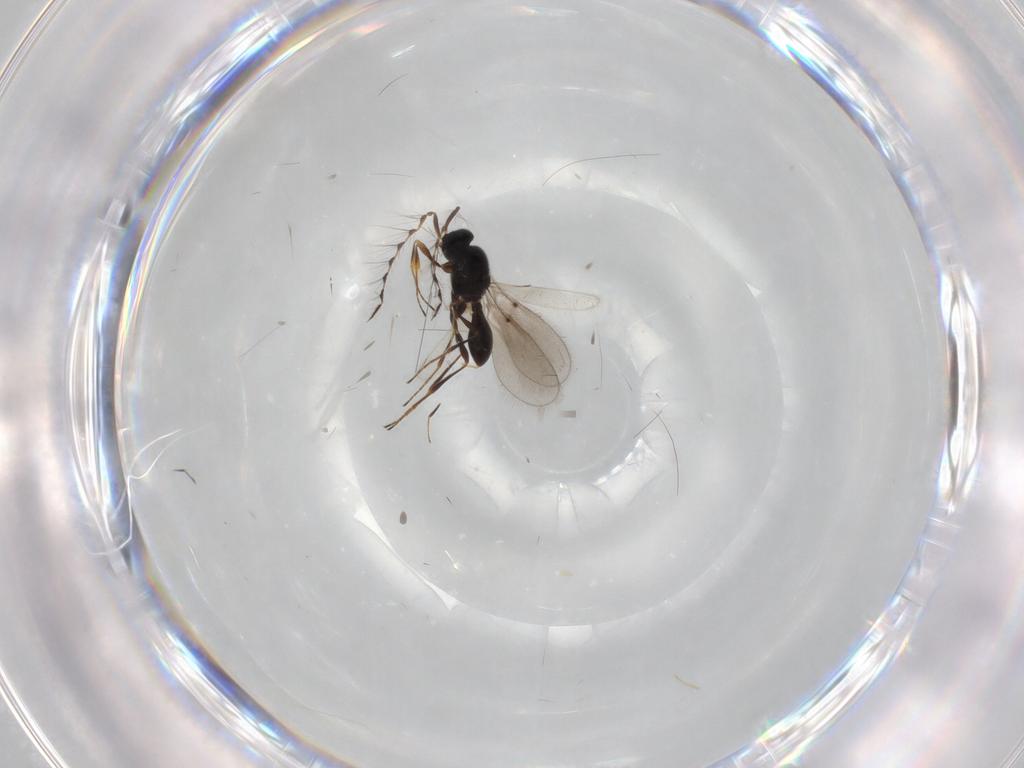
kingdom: Animalia
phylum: Arthropoda
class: Insecta
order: Hymenoptera
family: Platygastridae
